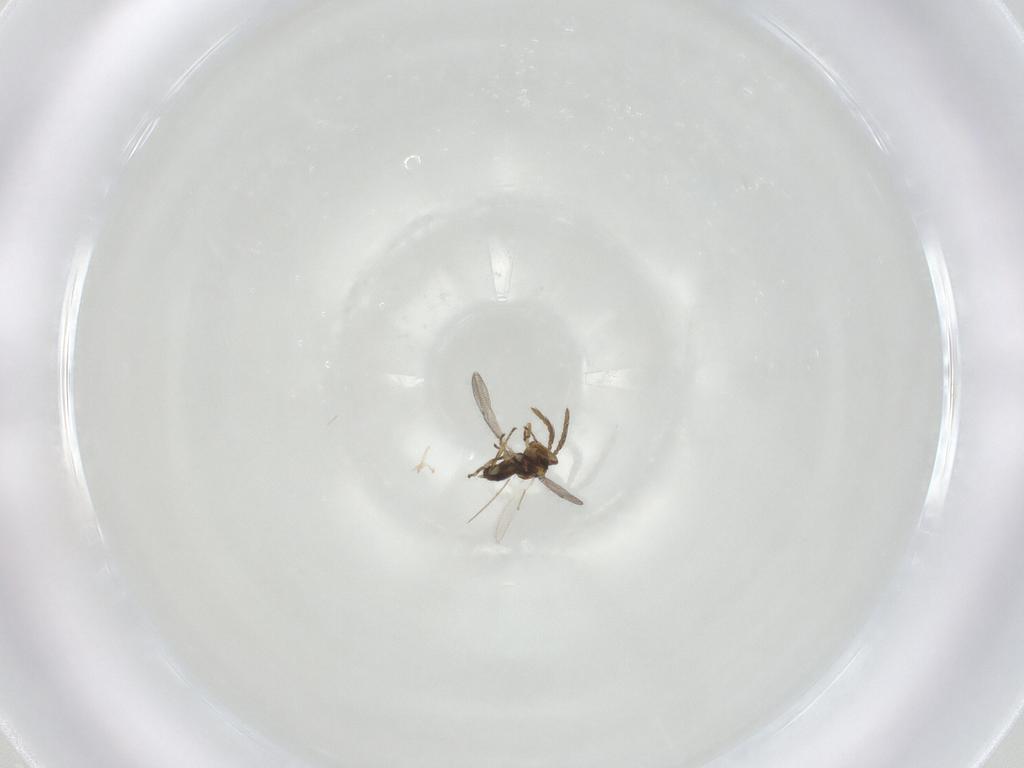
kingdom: Animalia
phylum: Arthropoda
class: Insecta
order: Hymenoptera
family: Eulophidae
